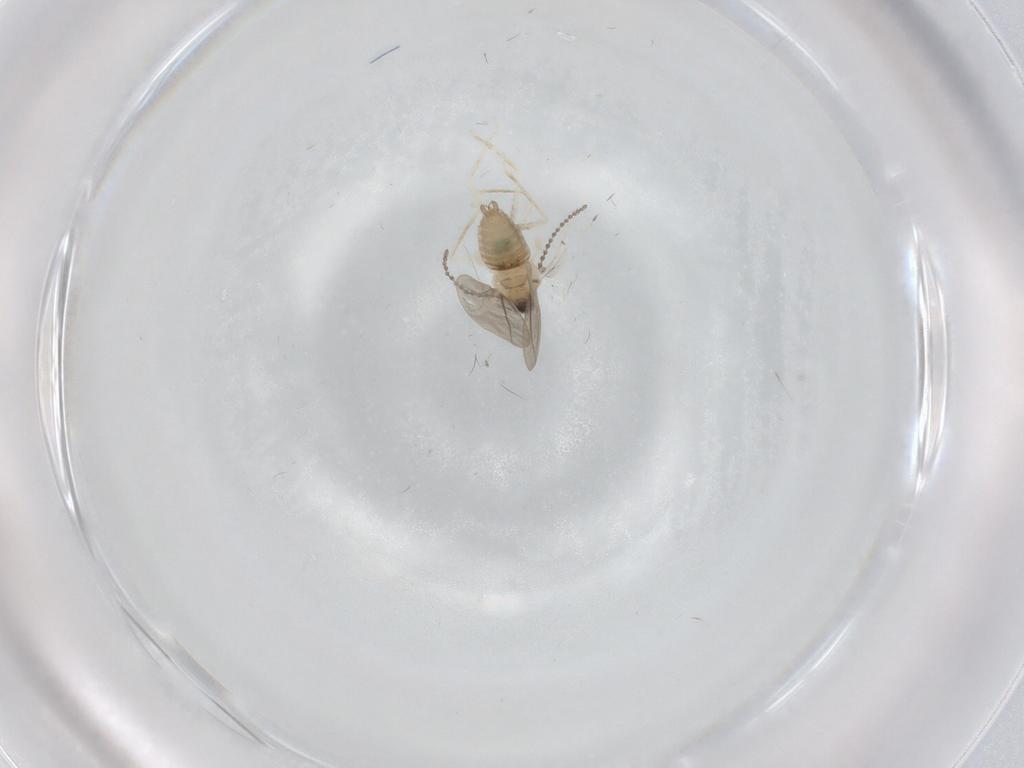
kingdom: Animalia
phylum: Arthropoda
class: Insecta
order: Diptera
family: Cecidomyiidae
